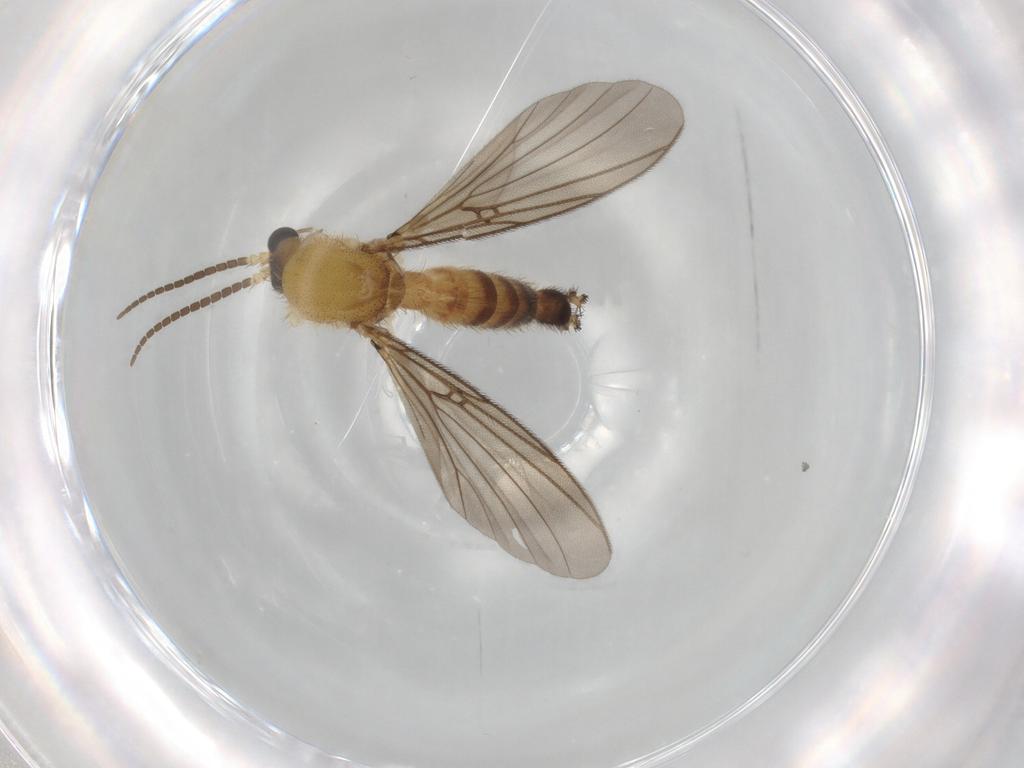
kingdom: Animalia
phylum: Arthropoda
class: Insecta
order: Diptera
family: Mycetophilidae
